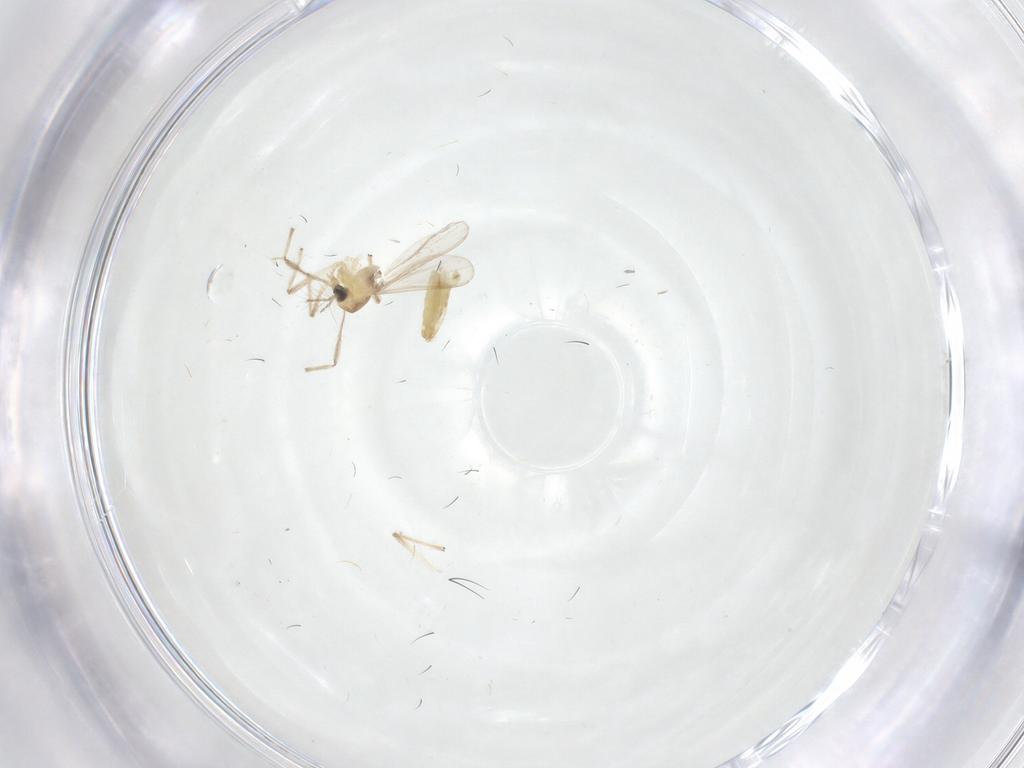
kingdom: Animalia
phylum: Arthropoda
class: Insecta
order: Diptera
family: Chironomidae
